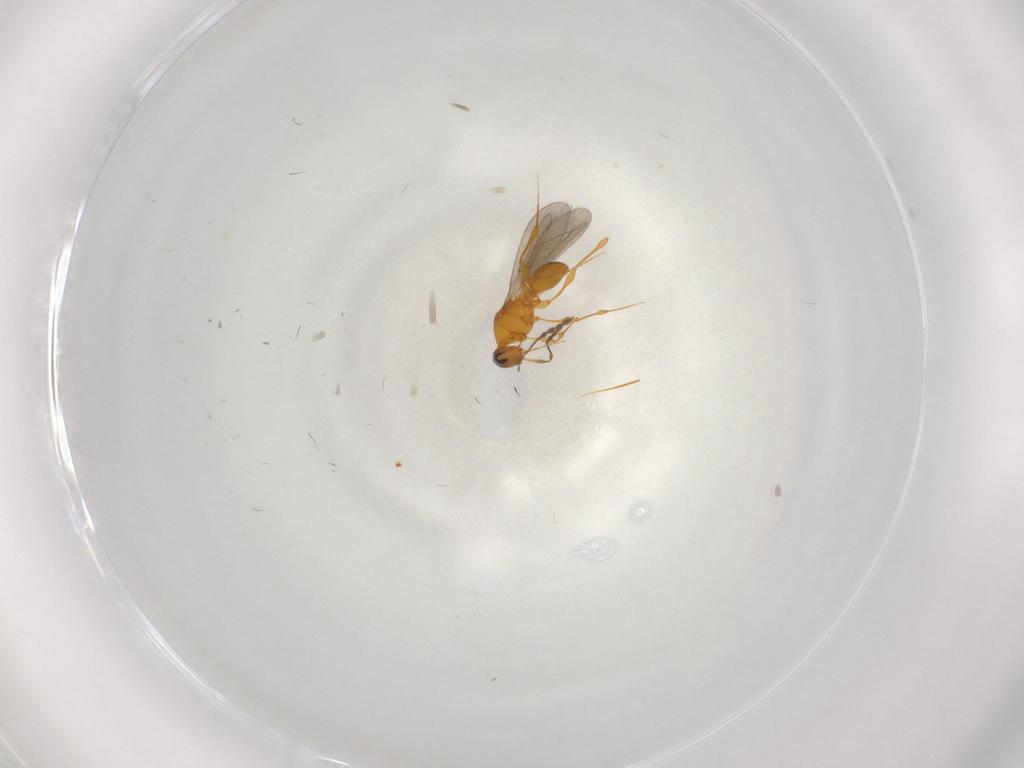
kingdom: Animalia
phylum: Arthropoda
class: Insecta
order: Hymenoptera
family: Platygastridae
